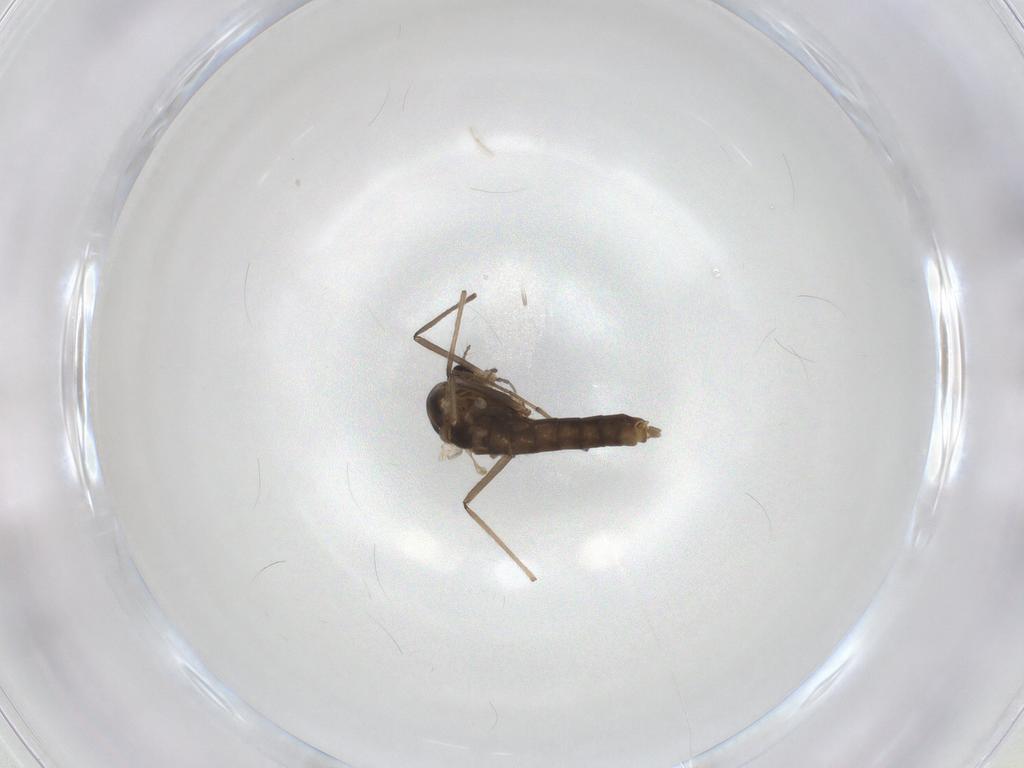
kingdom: Animalia
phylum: Arthropoda
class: Insecta
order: Diptera
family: Chironomidae
